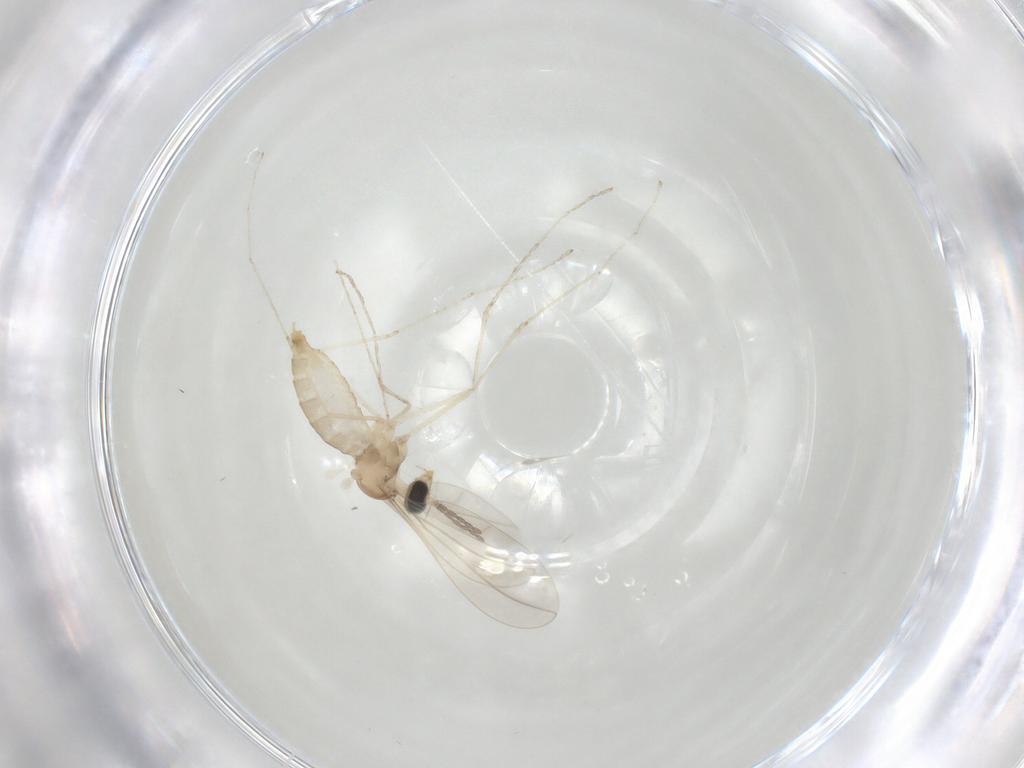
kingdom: Animalia
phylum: Arthropoda
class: Insecta
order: Diptera
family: Cecidomyiidae
